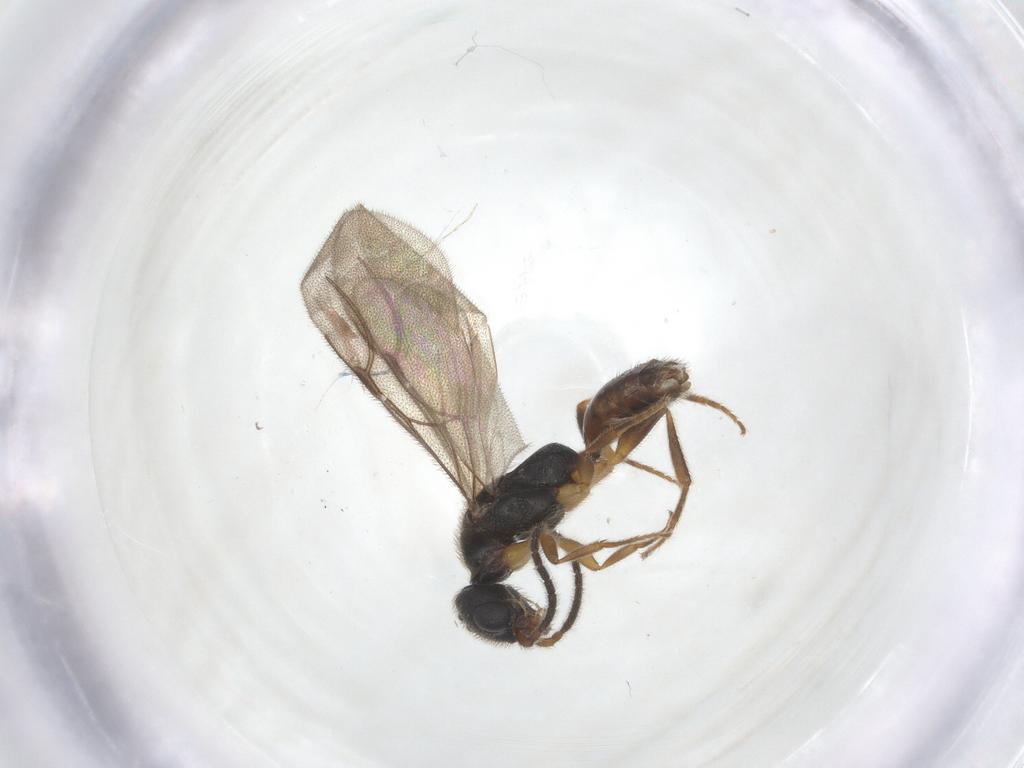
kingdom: Animalia
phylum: Arthropoda
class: Insecta
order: Hymenoptera
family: Bethylidae
